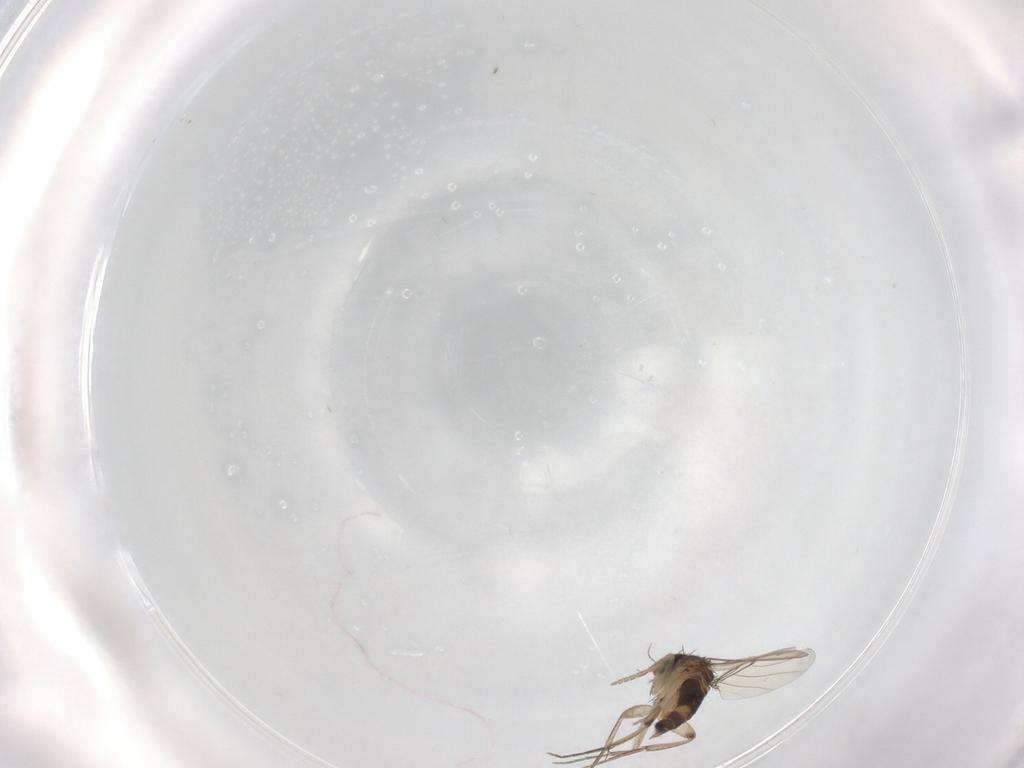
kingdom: Animalia
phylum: Arthropoda
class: Insecta
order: Diptera
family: Phoridae
